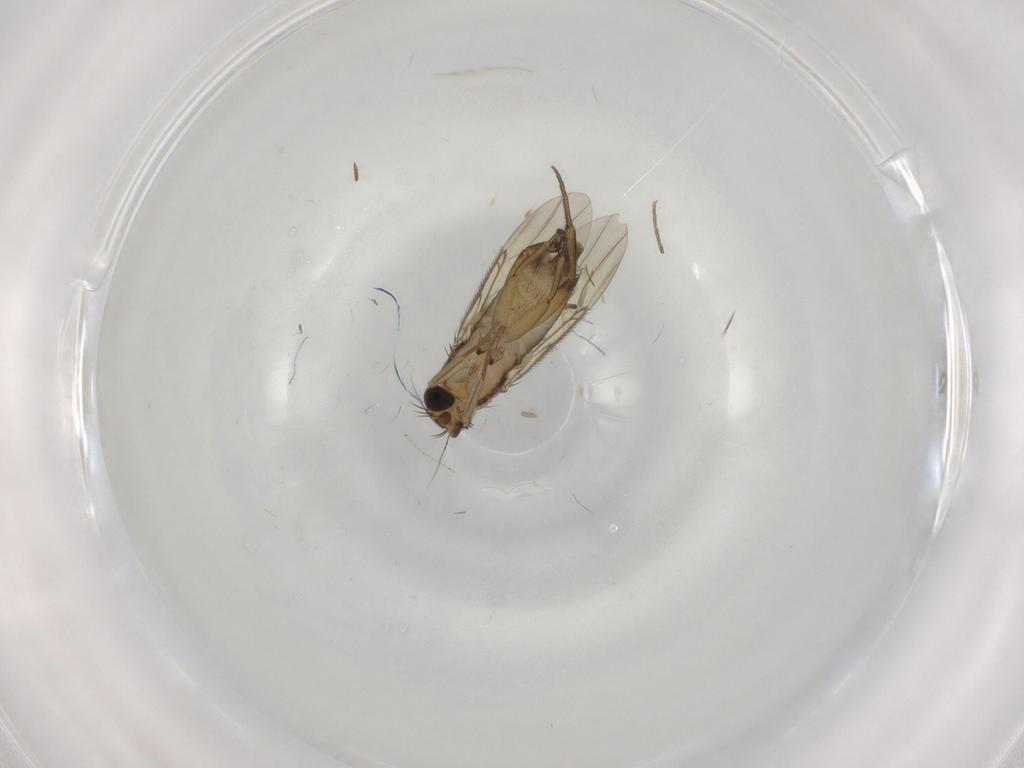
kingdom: Animalia
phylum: Arthropoda
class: Insecta
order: Diptera
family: Phoridae
